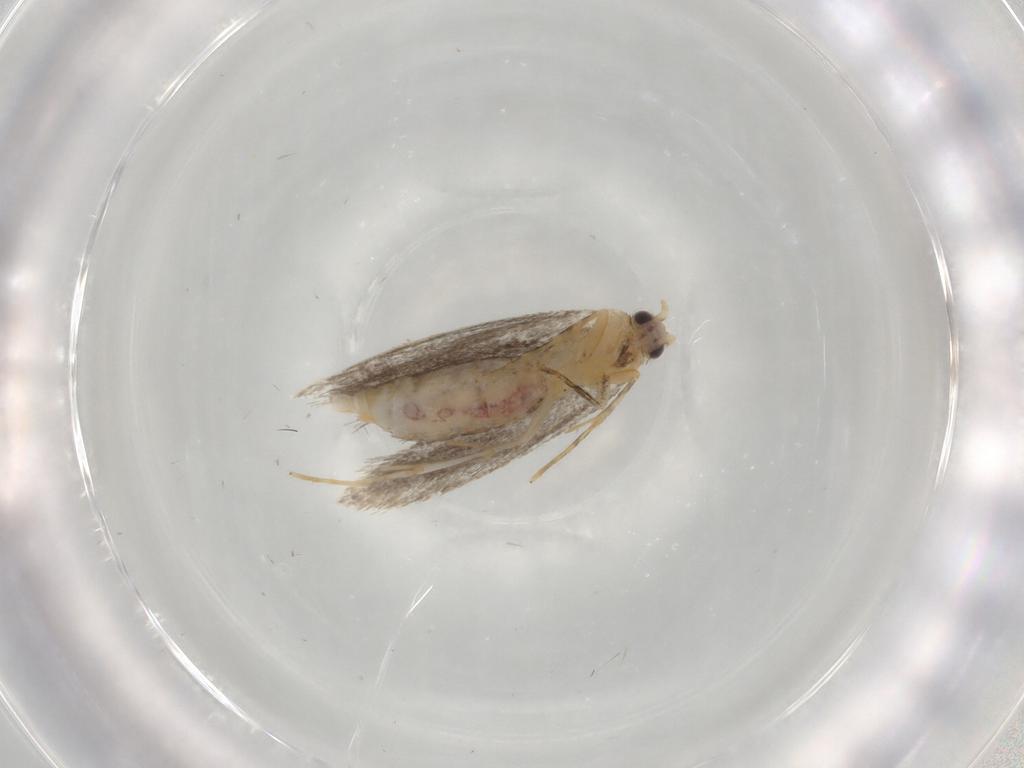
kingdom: Animalia
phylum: Arthropoda
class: Insecta
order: Lepidoptera
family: Nepticulidae
